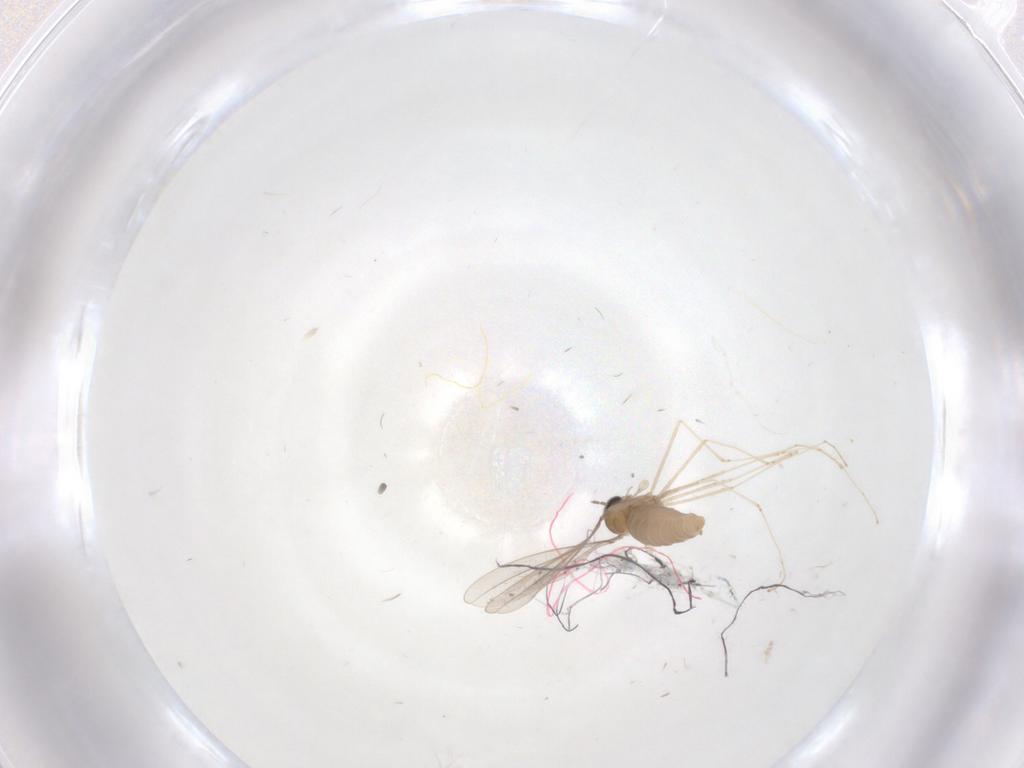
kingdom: Animalia
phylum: Arthropoda
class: Insecta
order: Diptera
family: Cecidomyiidae
